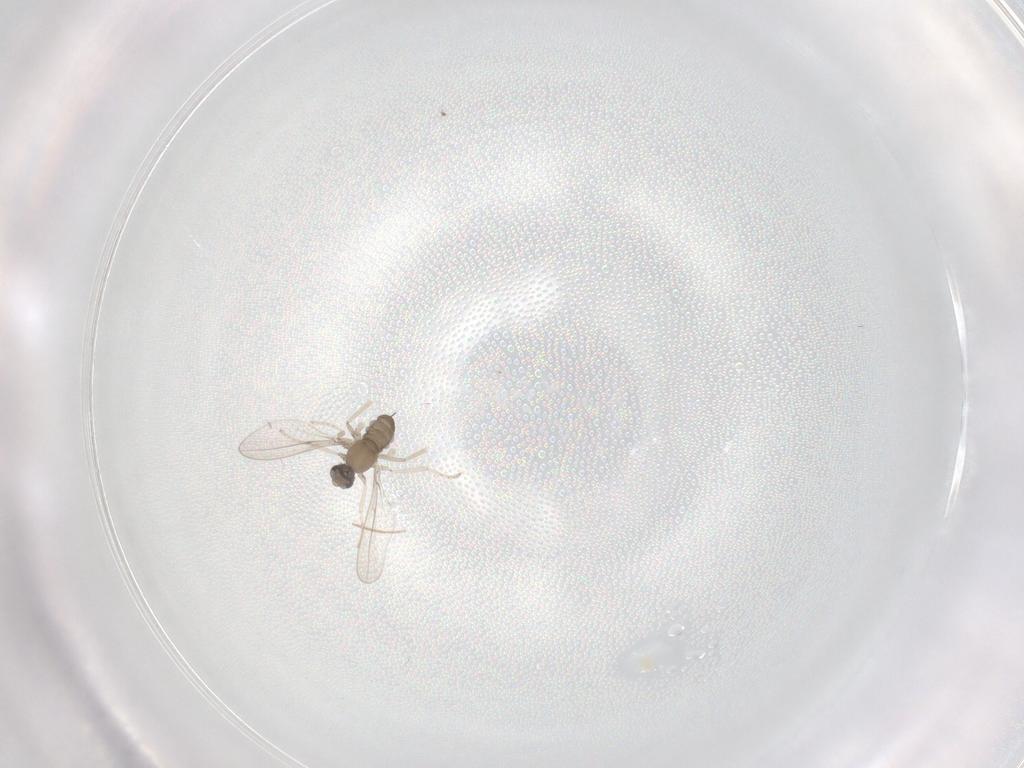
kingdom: Animalia
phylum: Arthropoda
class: Insecta
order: Diptera
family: Cecidomyiidae
